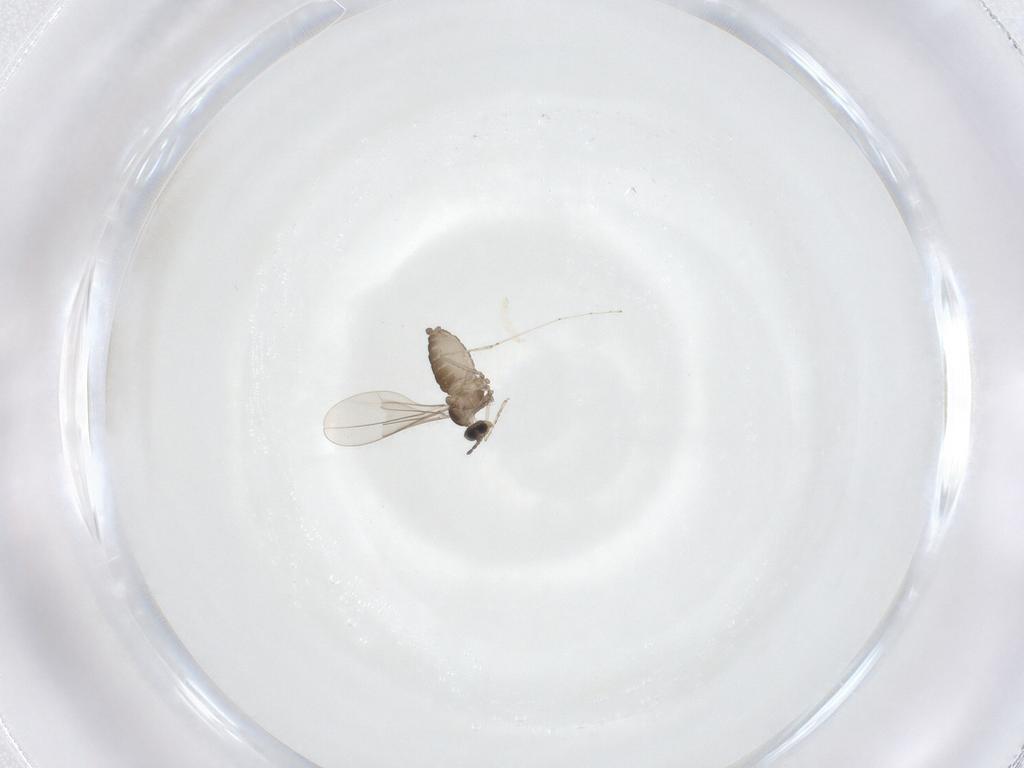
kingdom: Animalia
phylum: Arthropoda
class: Insecta
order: Diptera
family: Cecidomyiidae
